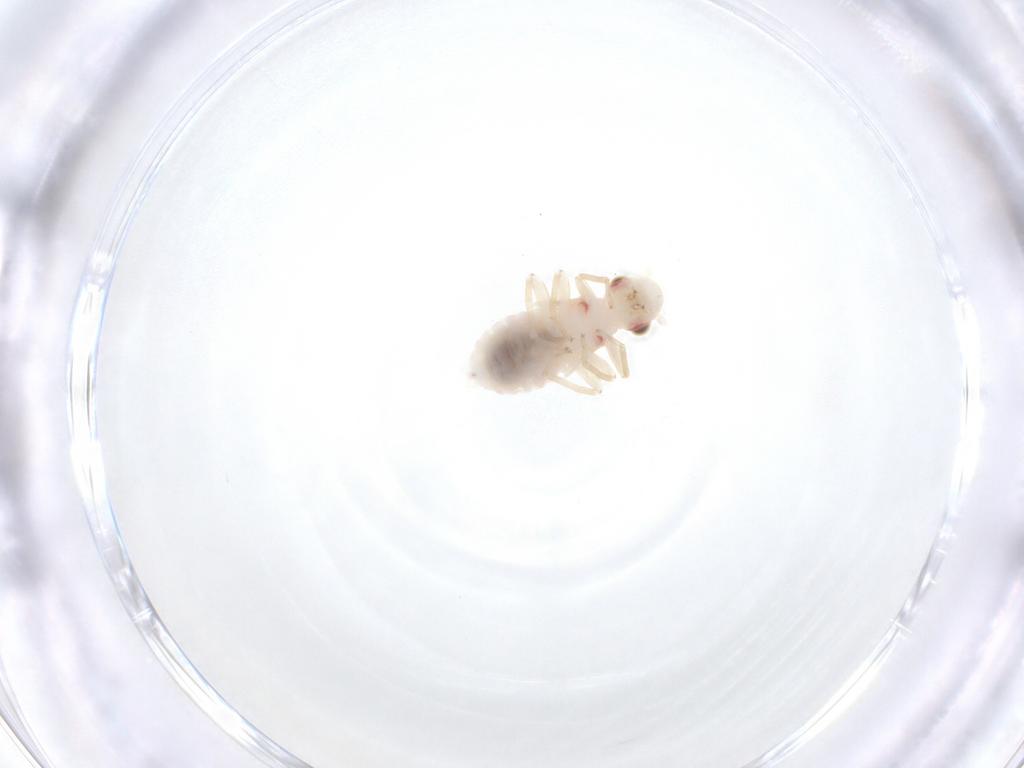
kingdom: Animalia
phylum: Arthropoda
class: Insecta
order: Psocodea
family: Caeciliusidae
